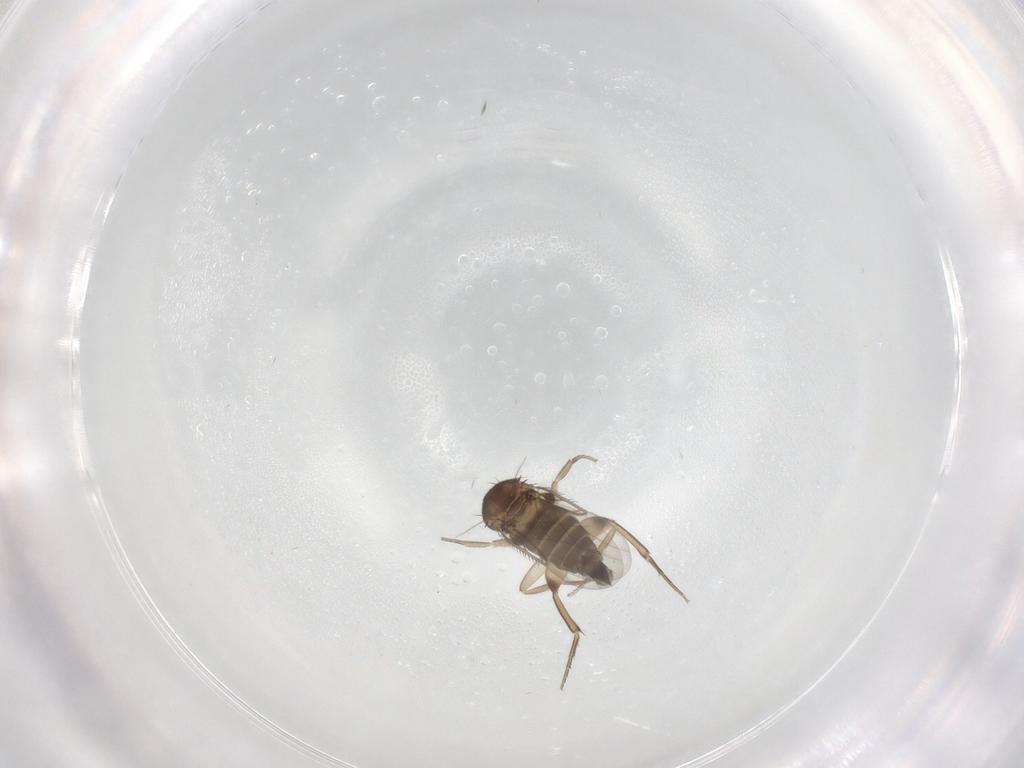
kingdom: Animalia
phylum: Arthropoda
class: Insecta
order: Diptera
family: Phoridae
